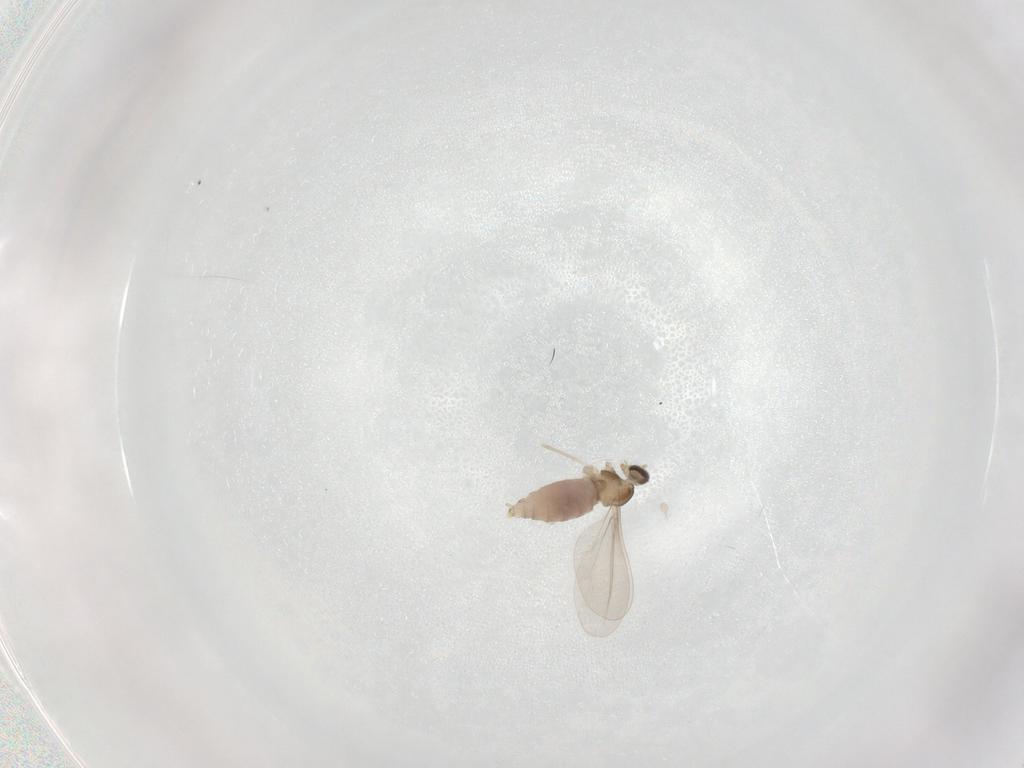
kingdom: Animalia
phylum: Arthropoda
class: Insecta
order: Diptera
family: Cecidomyiidae
